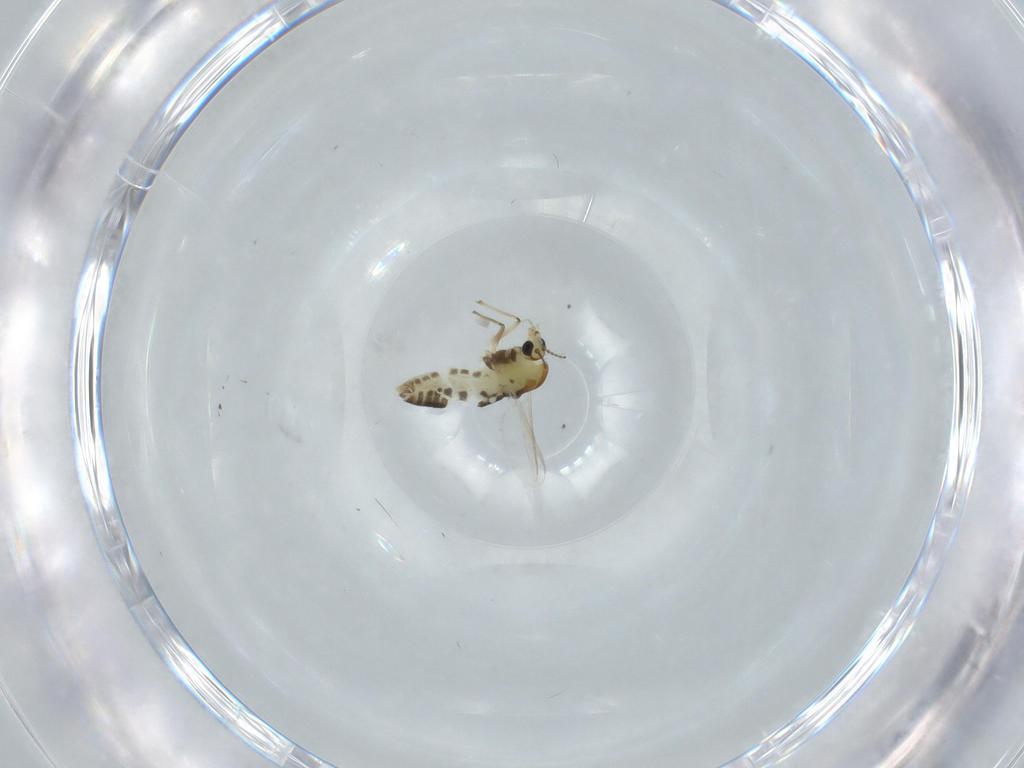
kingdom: Animalia
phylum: Arthropoda
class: Insecta
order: Diptera
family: Chironomidae
